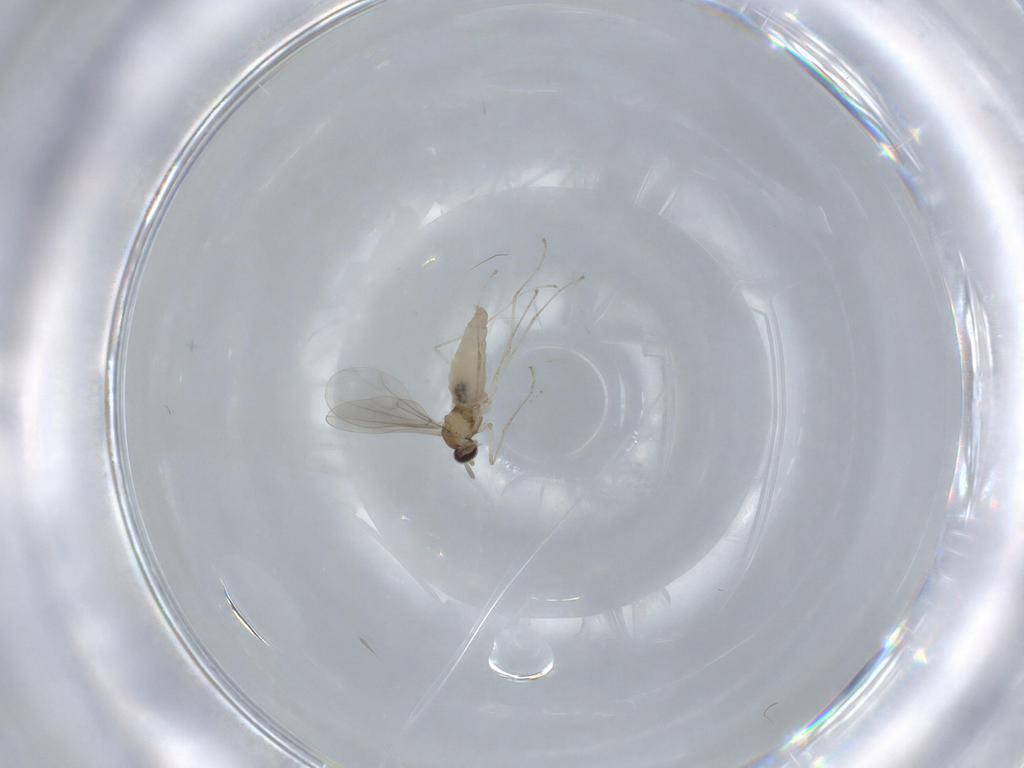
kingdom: Animalia
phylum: Arthropoda
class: Insecta
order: Diptera
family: Cecidomyiidae
